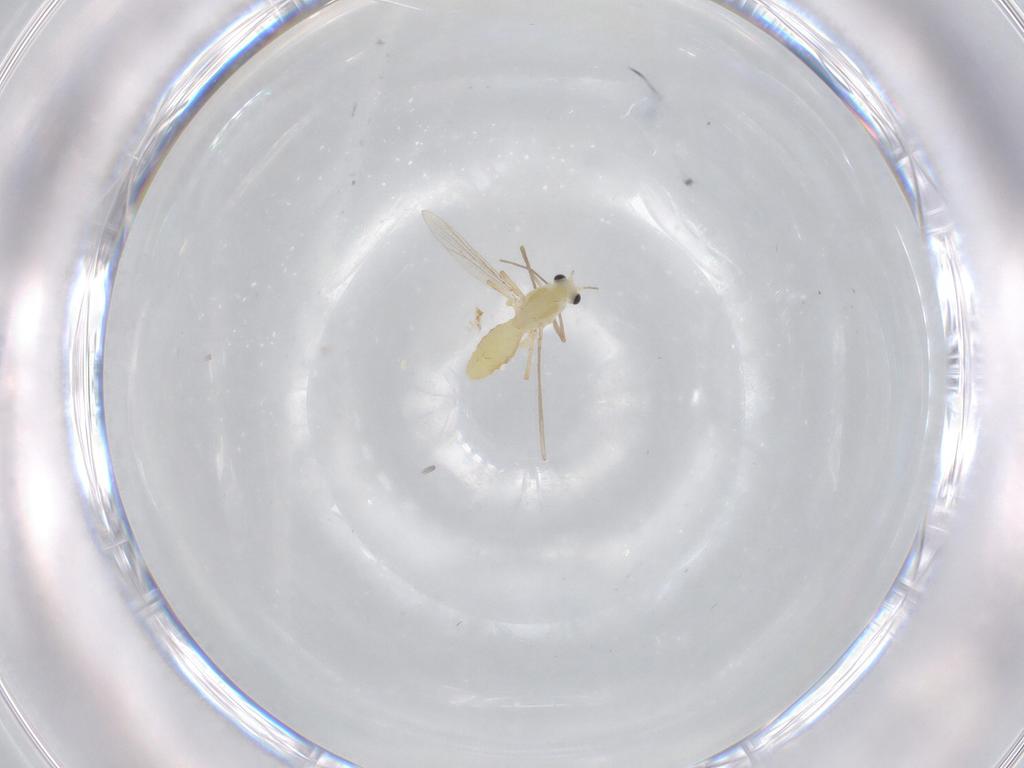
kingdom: Animalia
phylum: Arthropoda
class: Insecta
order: Diptera
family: Chironomidae
